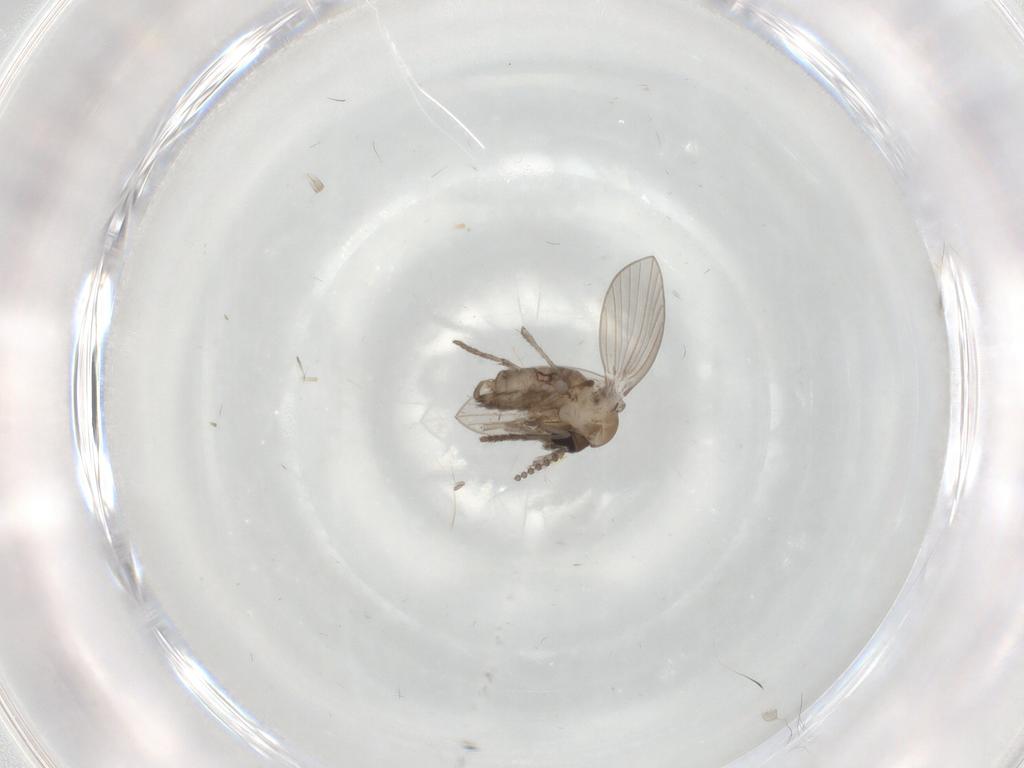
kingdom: Animalia
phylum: Arthropoda
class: Insecta
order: Diptera
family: Psychodidae
